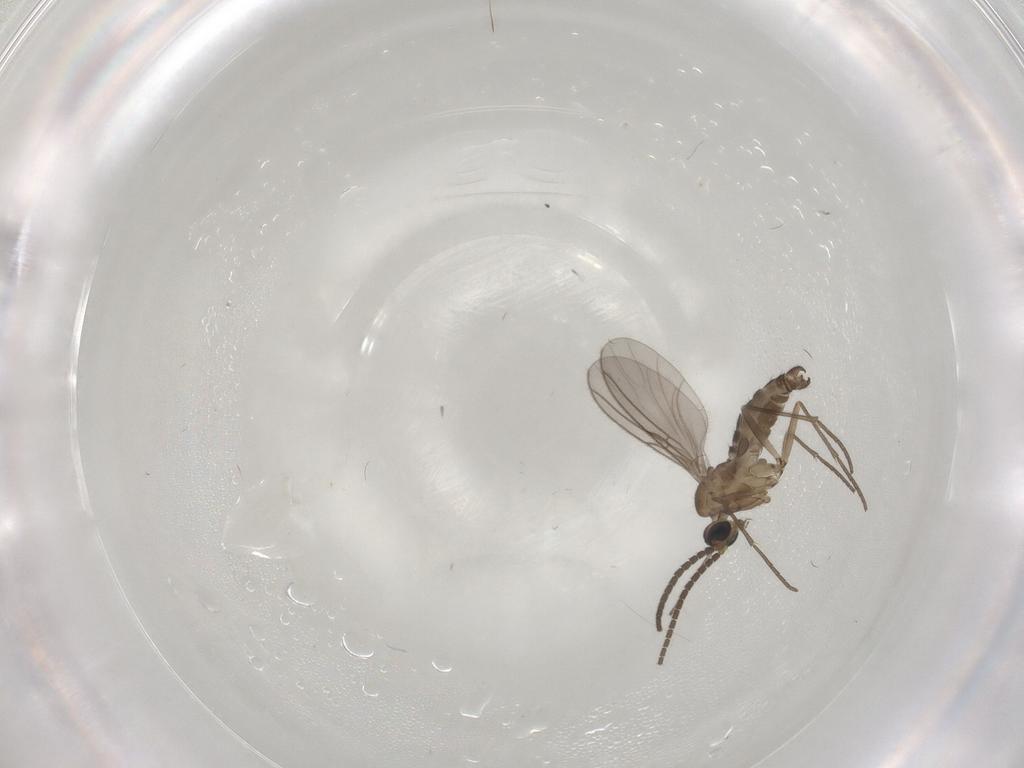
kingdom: Animalia
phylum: Arthropoda
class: Insecta
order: Diptera
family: Sciaridae
